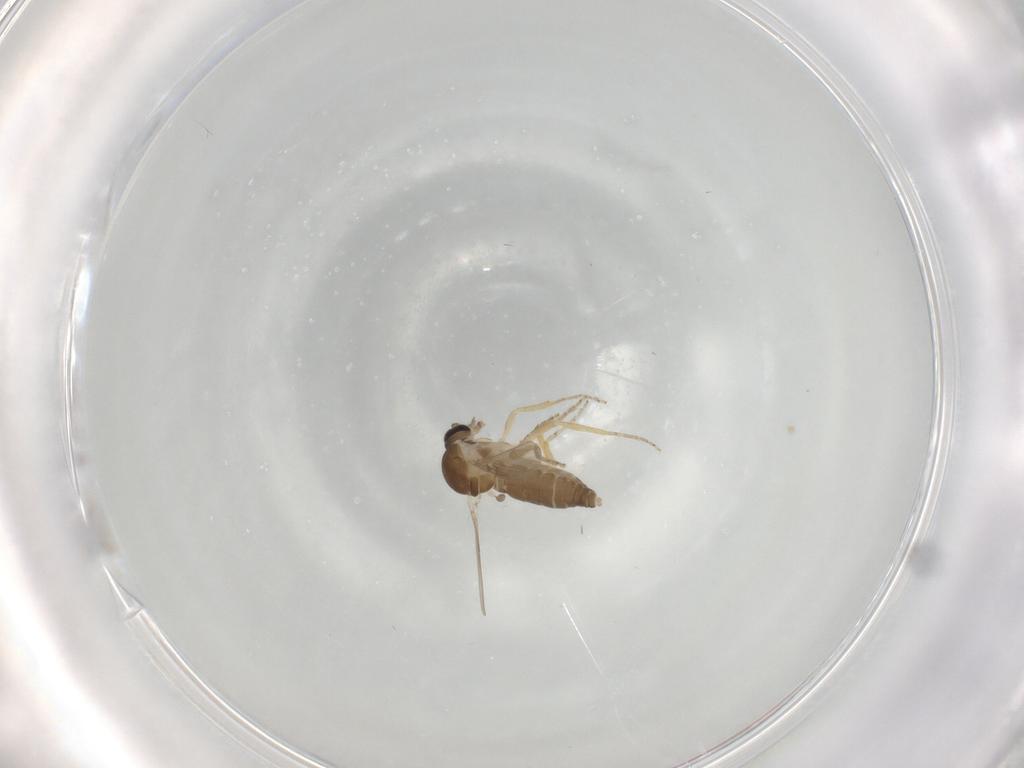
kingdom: Animalia
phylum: Arthropoda
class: Insecta
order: Diptera
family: Ceratopogonidae
